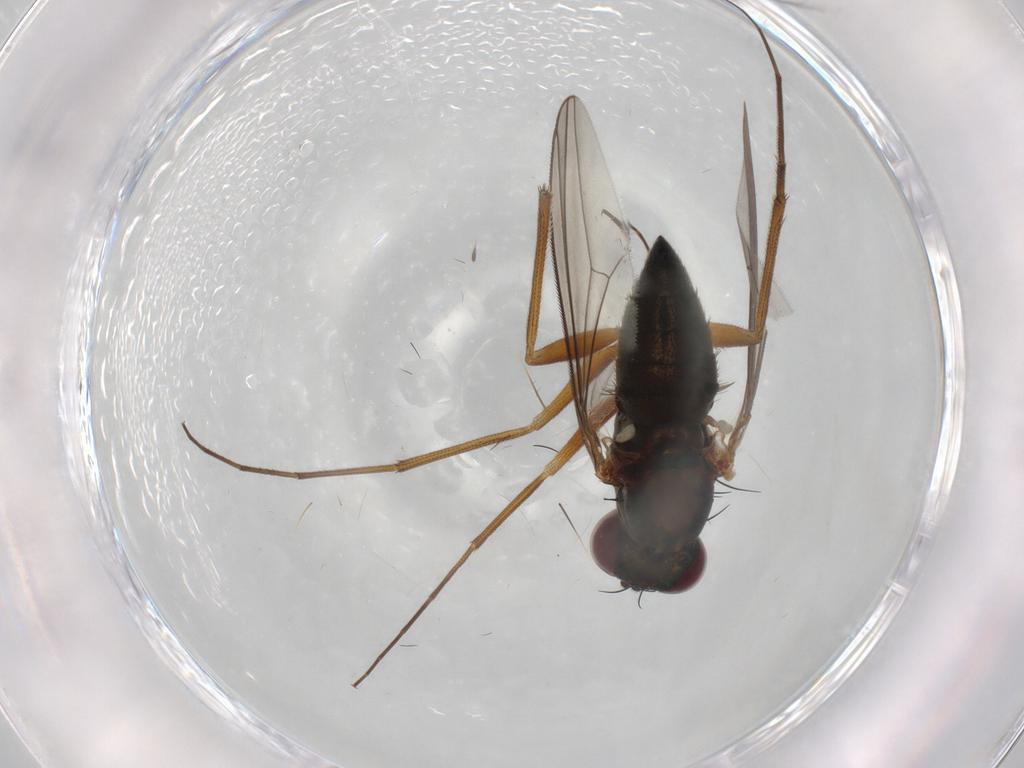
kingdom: Animalia
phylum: Arthropoda
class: Insecta
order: Diptera
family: Dolichopodidae
